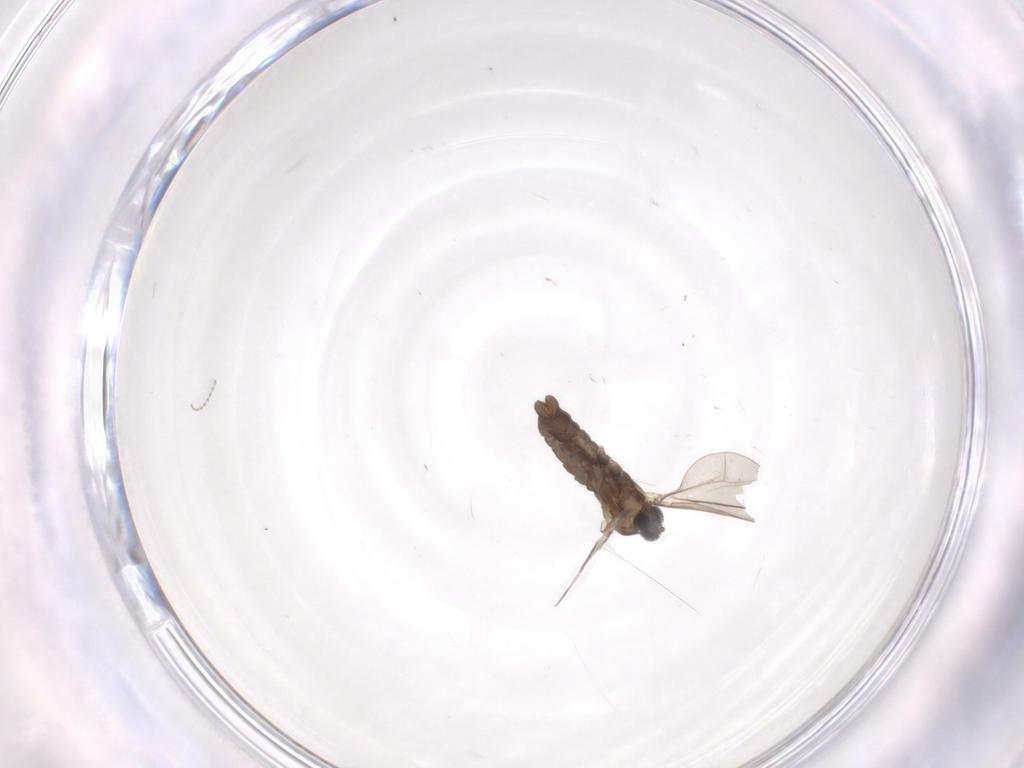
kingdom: Animalia
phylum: Arthropoda
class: Insecta
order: Diptera
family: Cecidomyiidae
